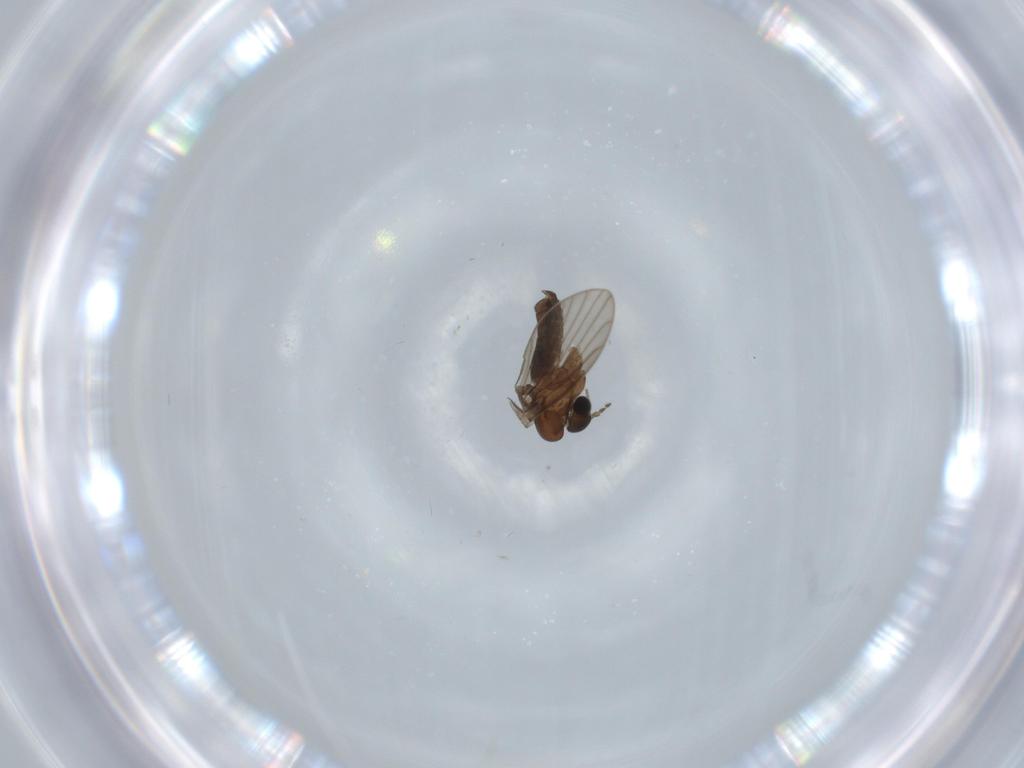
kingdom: Animalia
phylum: Arthropoda
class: Insecta
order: Diptera
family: Psychodidae
